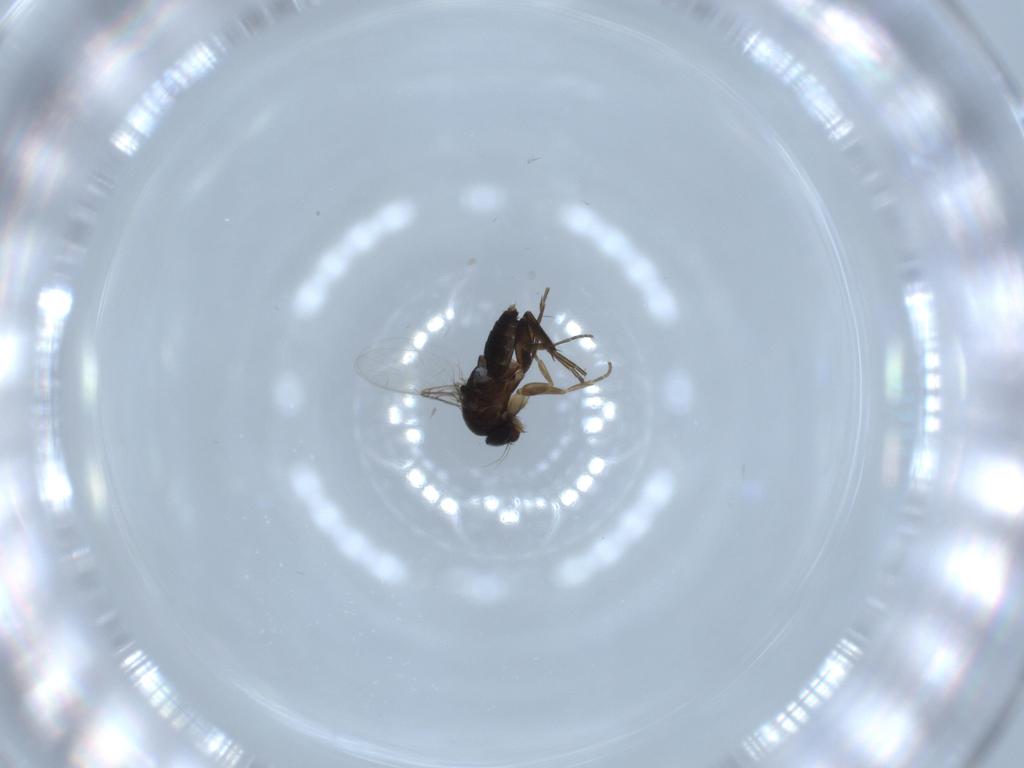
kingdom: Animalia
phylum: Arthropoda
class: Insecta
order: Diptera
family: Phoridae
